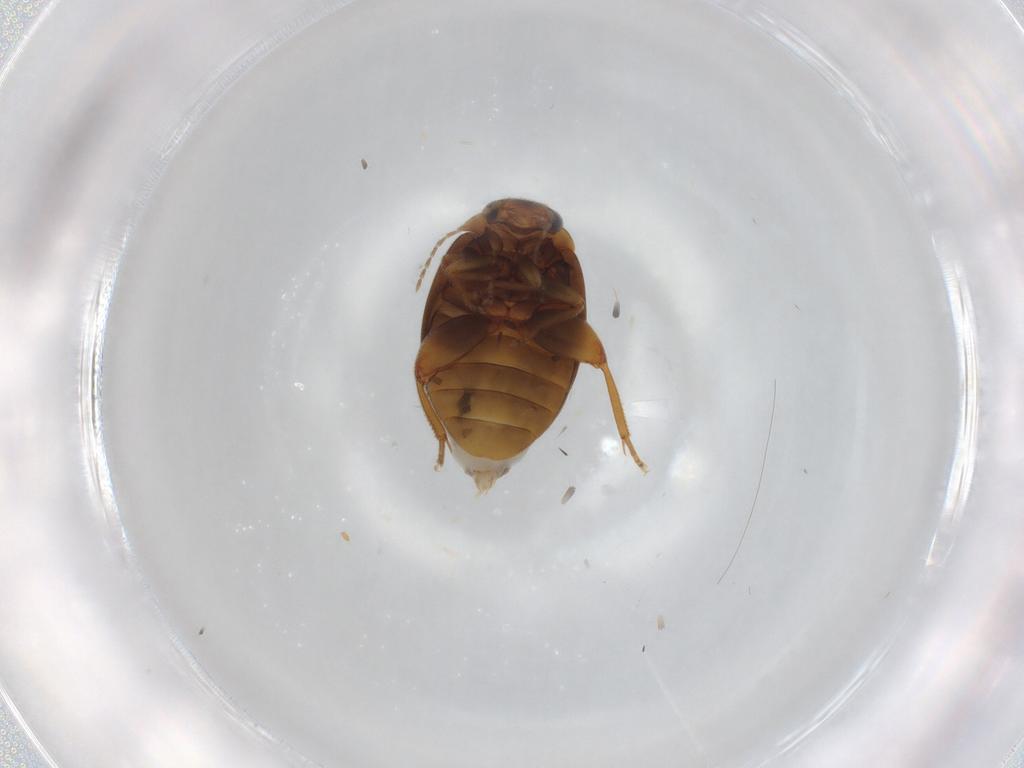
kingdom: Animalia
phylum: Arthropoda
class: Insecta
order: Coleoptera
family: Scirtidae
